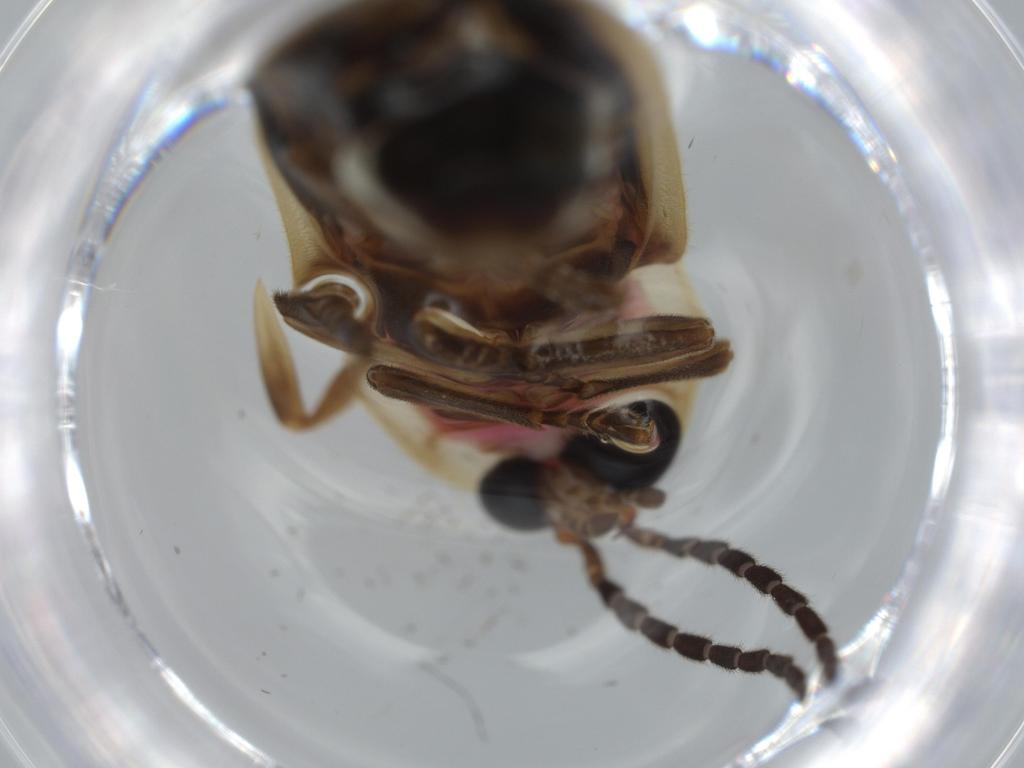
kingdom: Animalia
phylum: Arthropoda
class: Insecta
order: Coleoptera
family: Lampyridae
